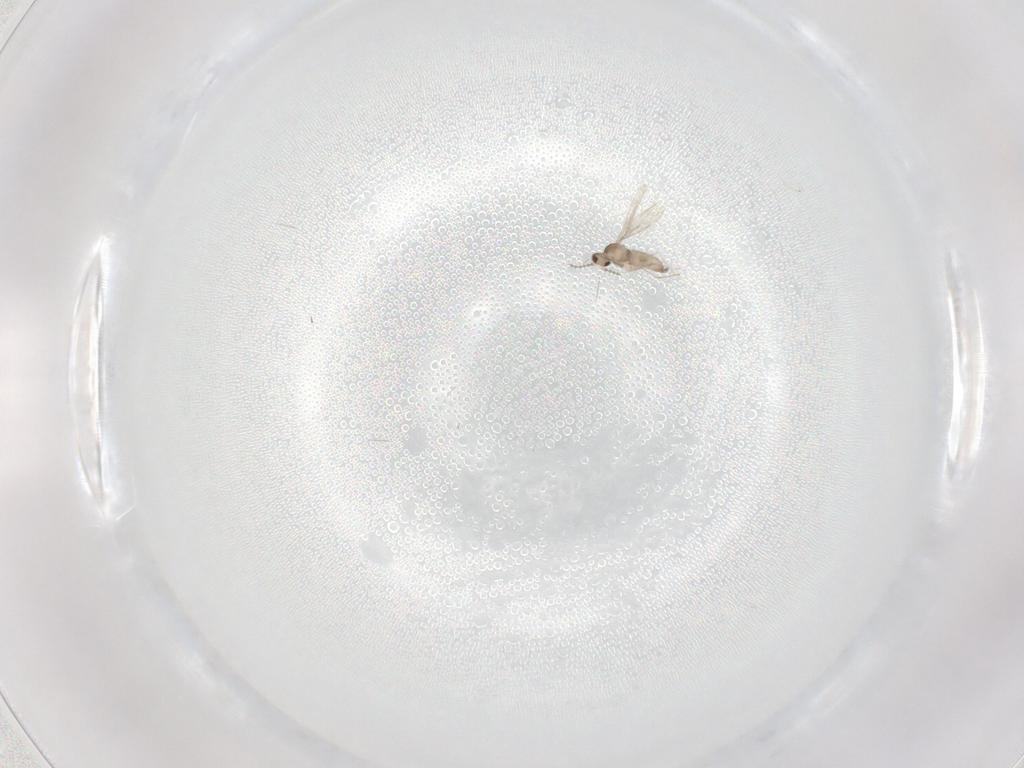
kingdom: Animalia
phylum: Arthropoda
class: Insecta
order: Diptera
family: Cecidomyiidae
